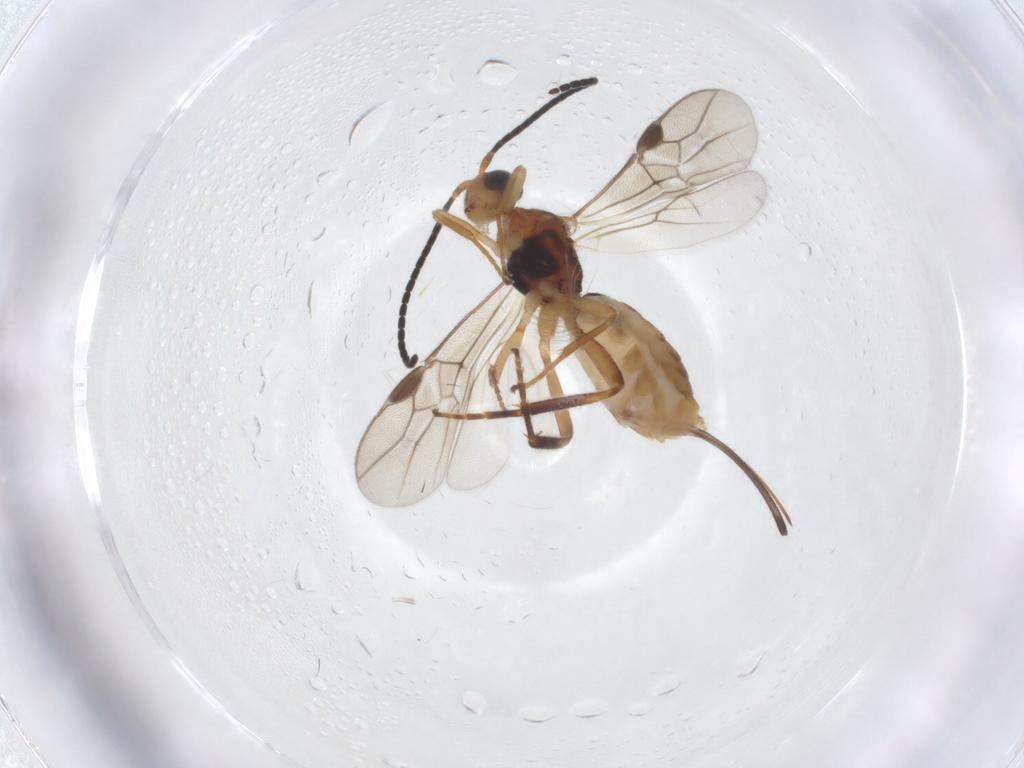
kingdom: Animalia
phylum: Arthropoda
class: Insecta
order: Hymenoptera
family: Braconidae
